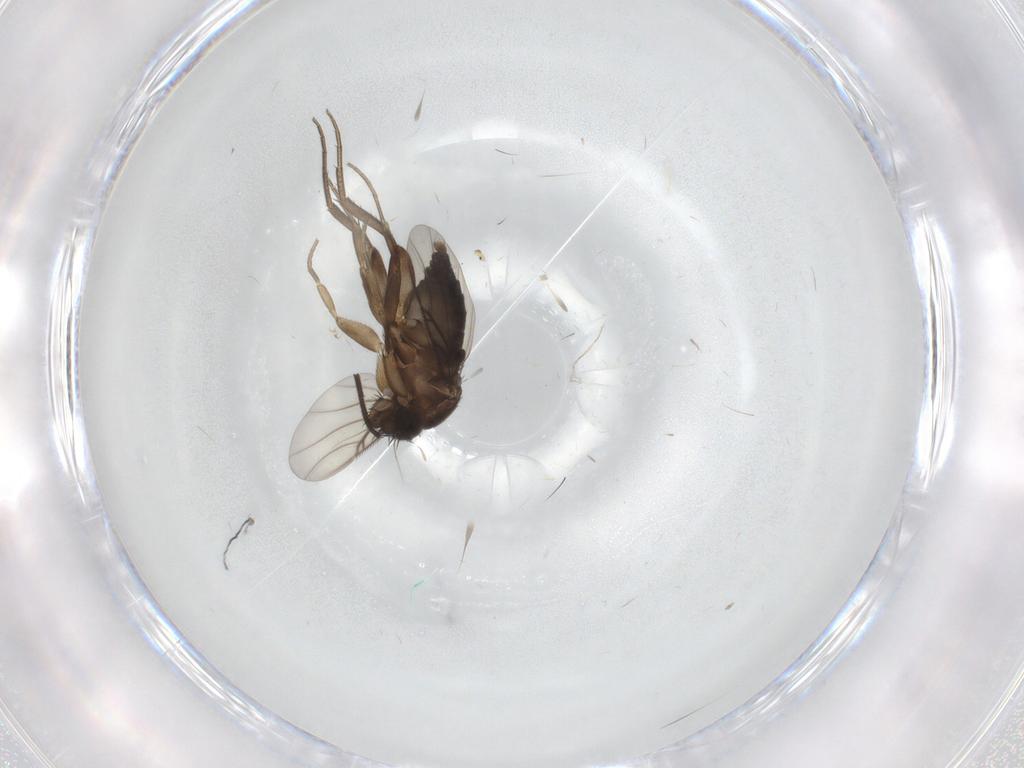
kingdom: Animalia
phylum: Arthropoda
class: Insecta
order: Diptera
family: Phoridae
